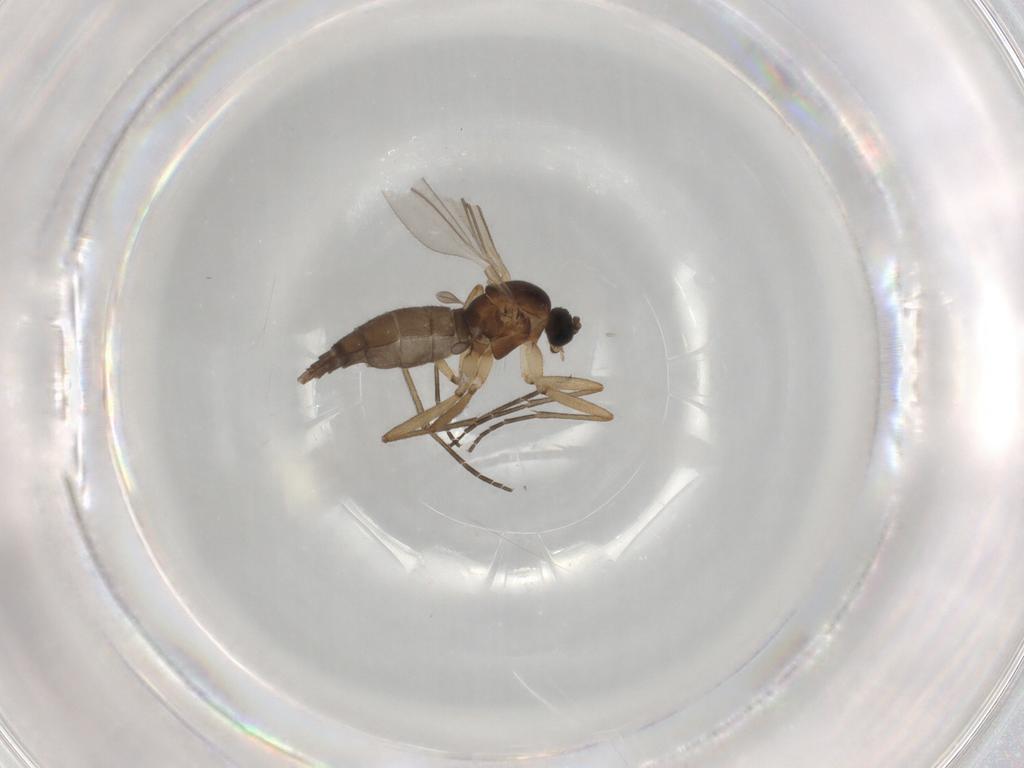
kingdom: Animalia
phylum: Arthropoda
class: Insecta
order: Diptera
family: Sciaridae
